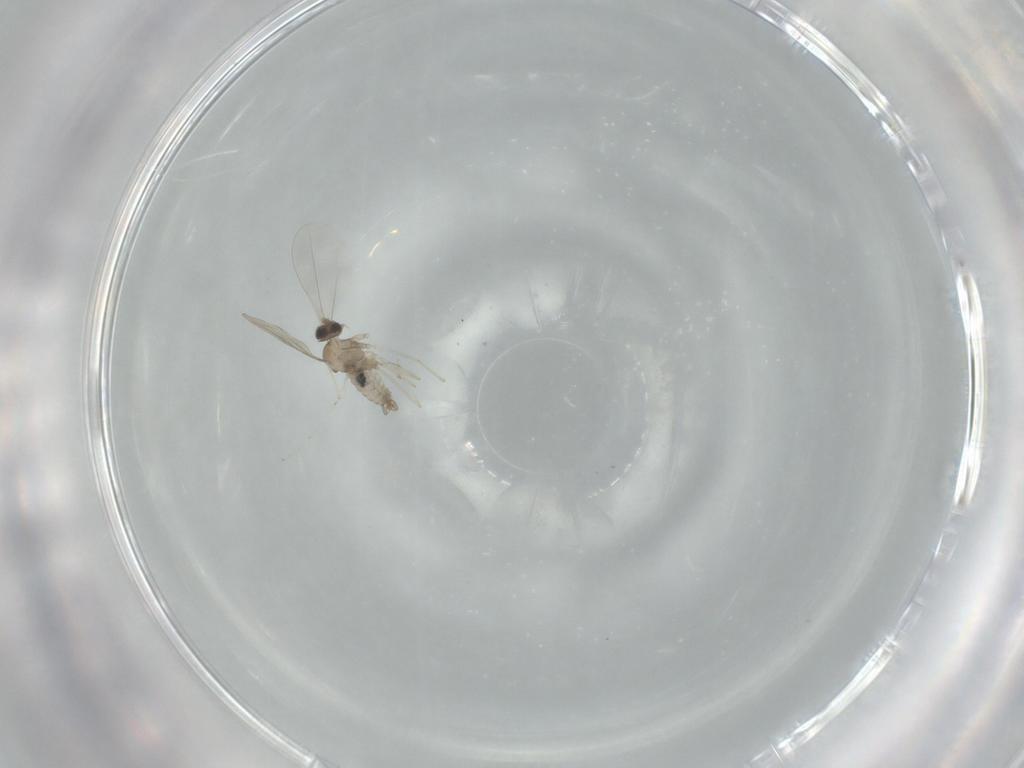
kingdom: Animalia
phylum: Arthropoda
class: Insecta
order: Diptera
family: Cecidomyiidae
